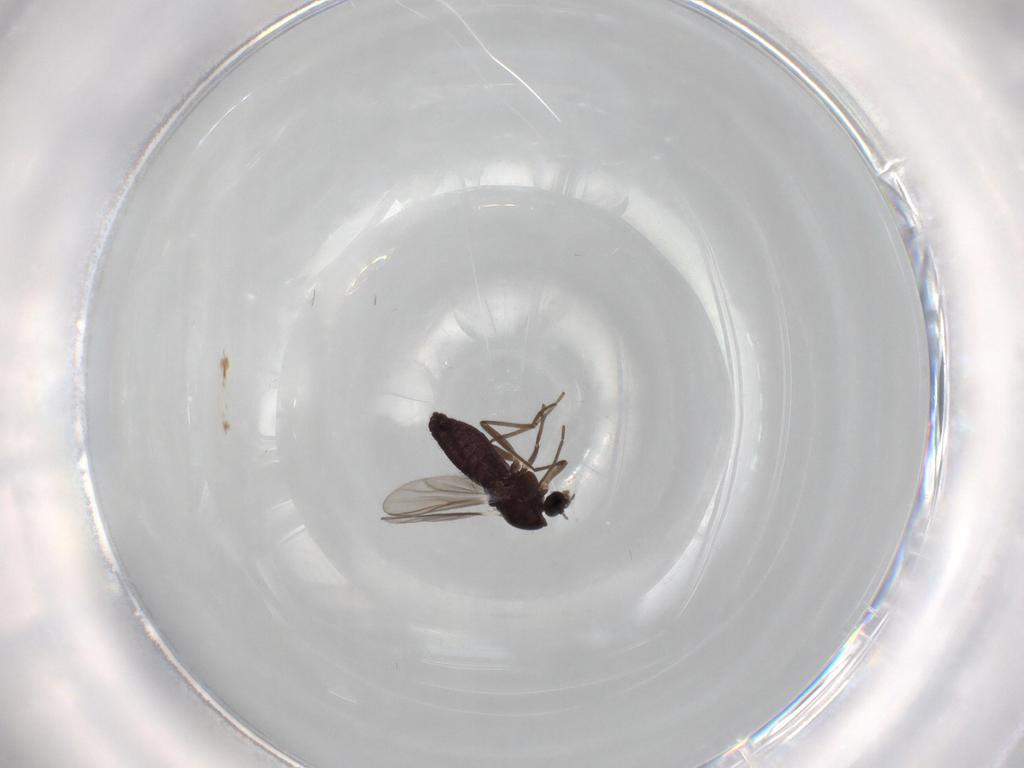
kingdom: Animalia
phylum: Arthropoda
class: Insecta
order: Diptera
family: Chironomidae
